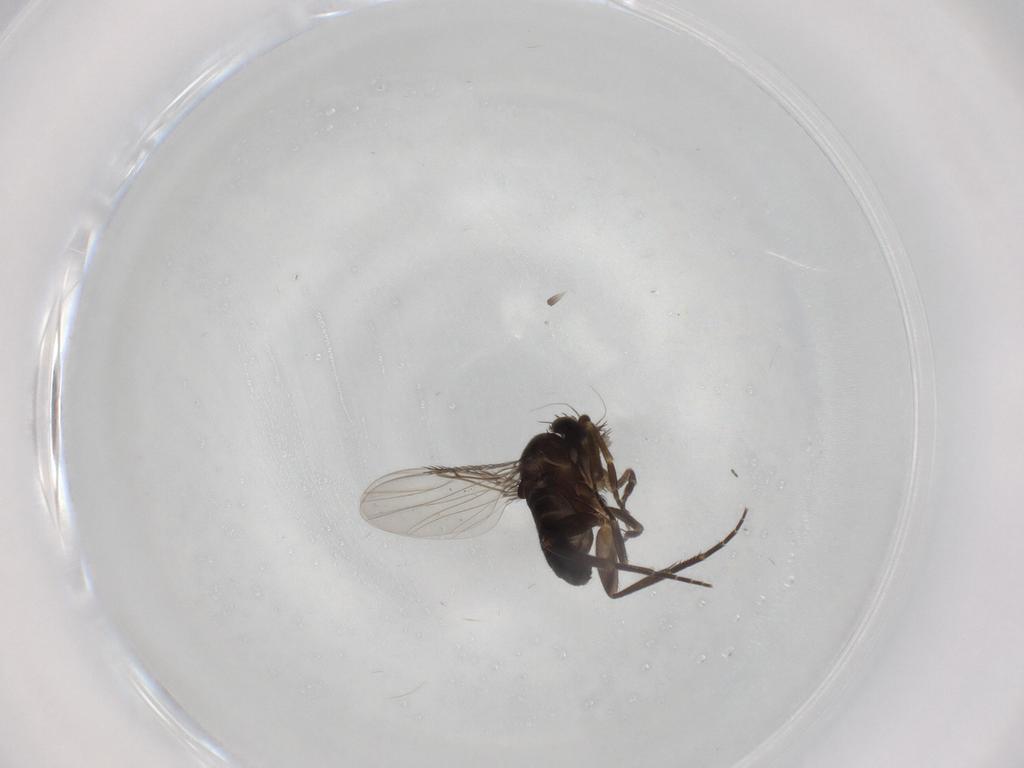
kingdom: Animalia
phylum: Arthropoda
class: Insecta
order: Diptera
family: Phoridae
